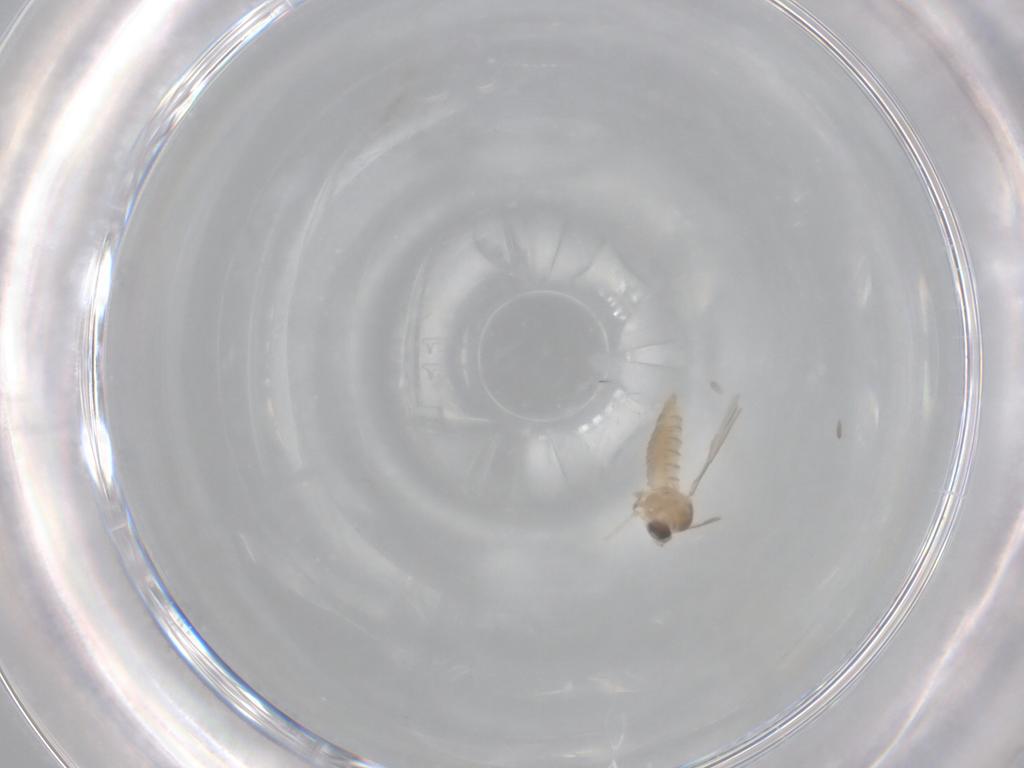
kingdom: Animalia
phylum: Arthropoda
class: Insecta
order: Diptera
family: Cecidomyiidae
